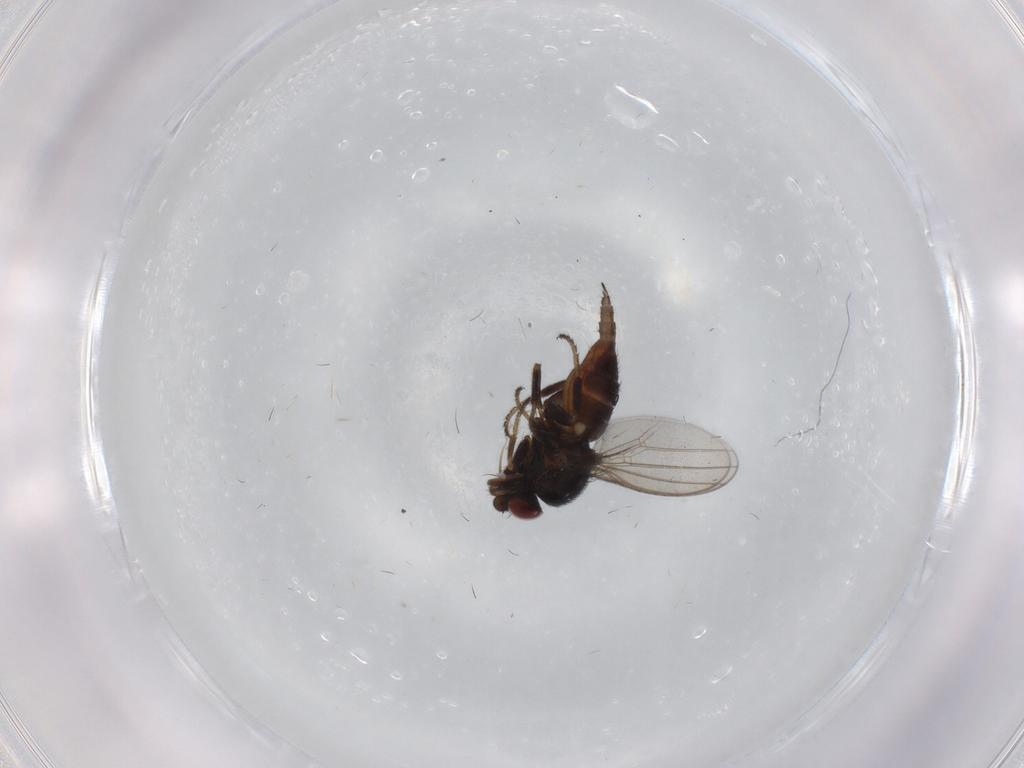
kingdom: Animalia
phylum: Arthropoda
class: Insecta
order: Diptera
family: Milichiidae
